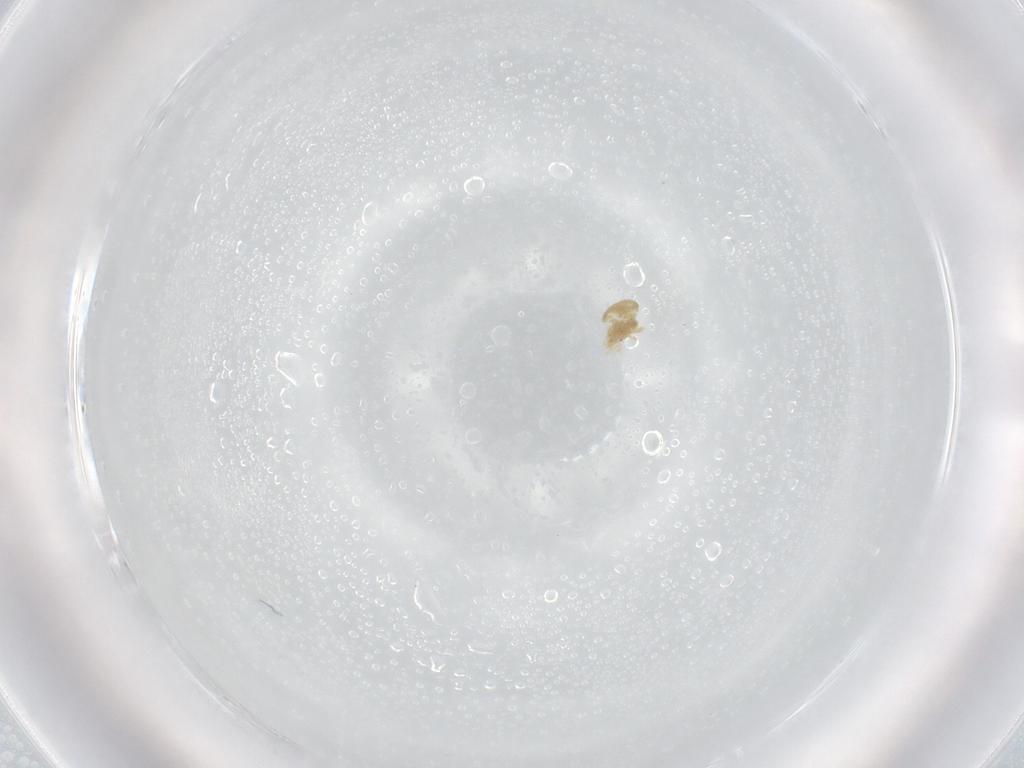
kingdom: Animalia
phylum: Arthropoda
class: Arachnida
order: Trombidiformes
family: Eupodidae
